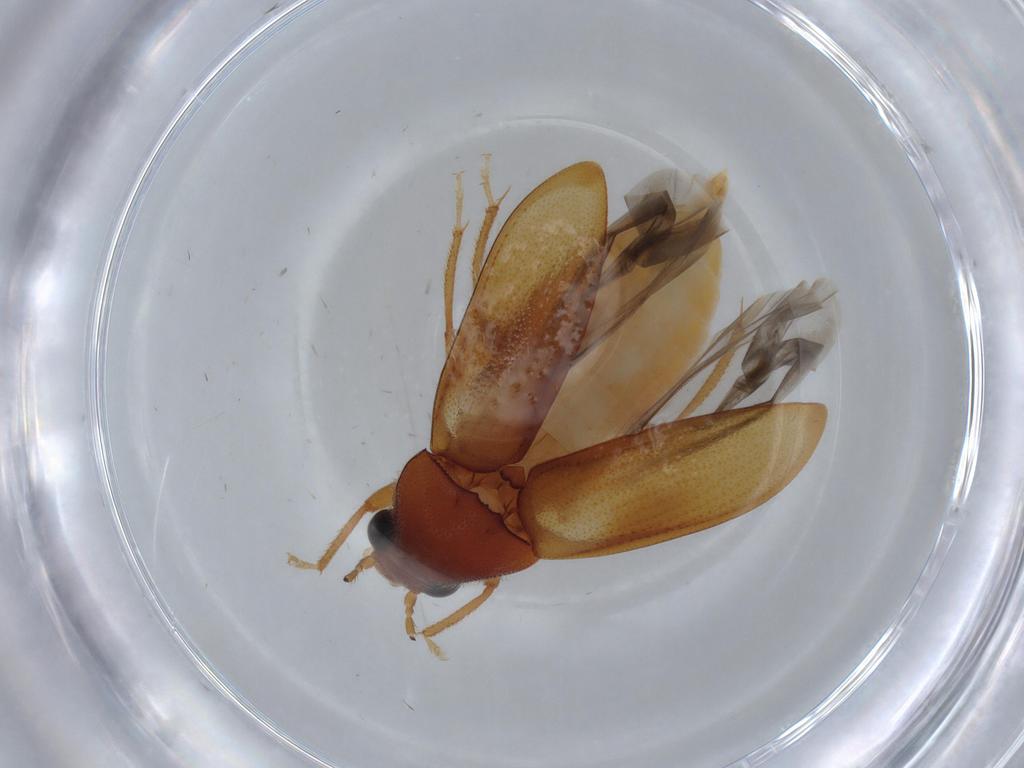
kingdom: Animalia
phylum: Arthropoda
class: Insecta
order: Coleoptera
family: Ptilodactylidae
